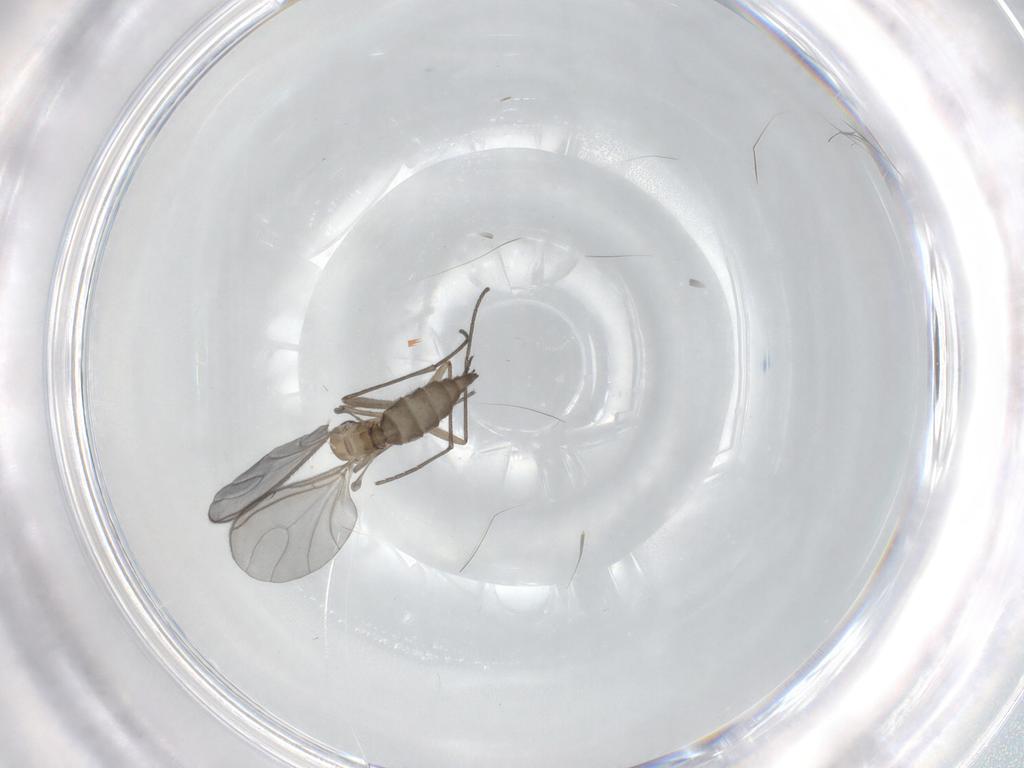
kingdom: Animalia
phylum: Arthropoda
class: Insecta
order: Diptera
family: Sciaridae
